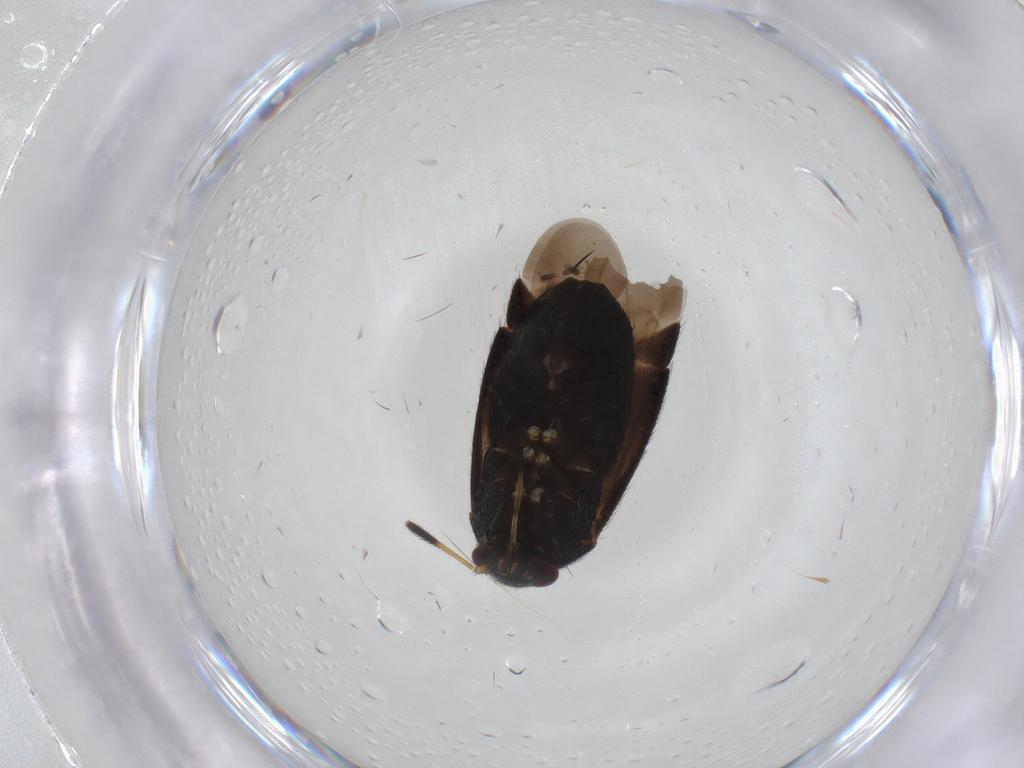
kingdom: Animalia
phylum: Arthropoda
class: Insecta
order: Hemiptera
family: Miridae
